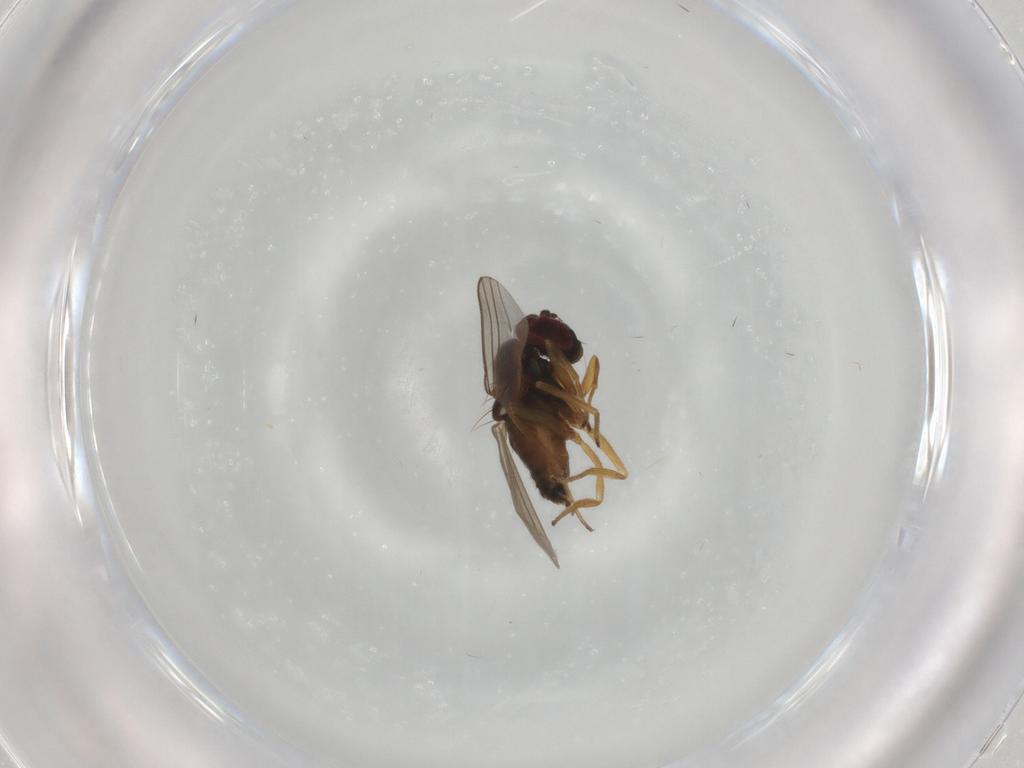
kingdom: Animalia
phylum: Arthropoda
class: Insecta
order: Diptera
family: Dolichopodidae
